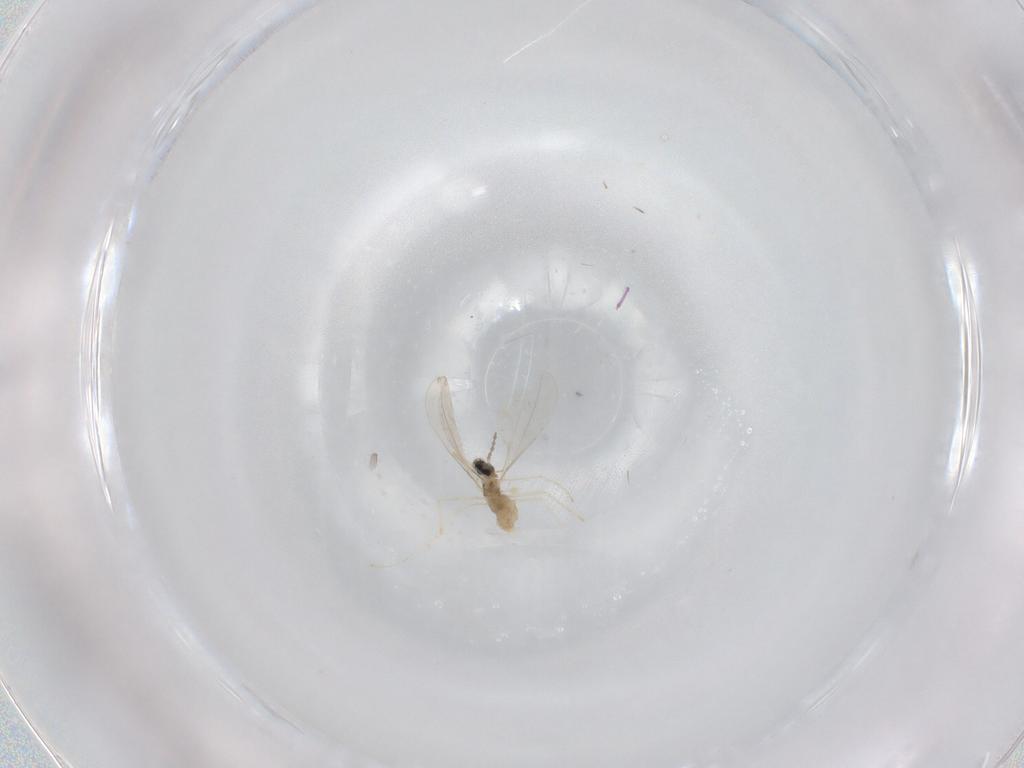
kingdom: Animalia
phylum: Arthropoda
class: Insecta
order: Diptera
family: Cecidomyiidae
